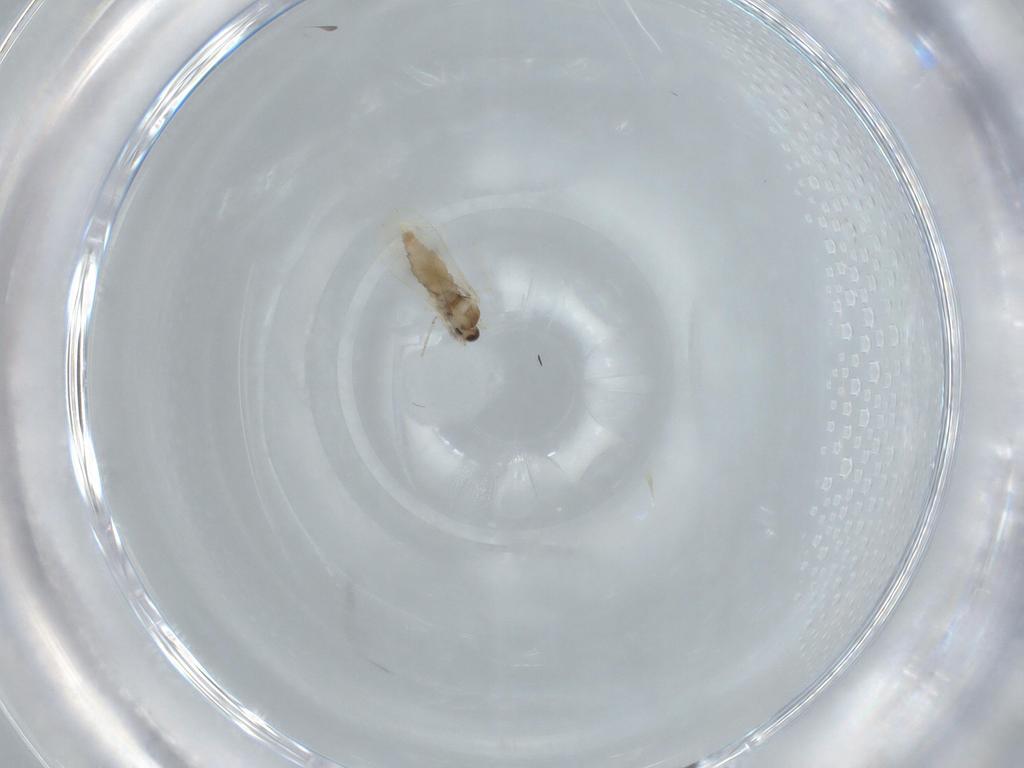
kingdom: Animalia
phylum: Arthropoda
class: Insecta
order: Diptera
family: Cecidomyiidae
